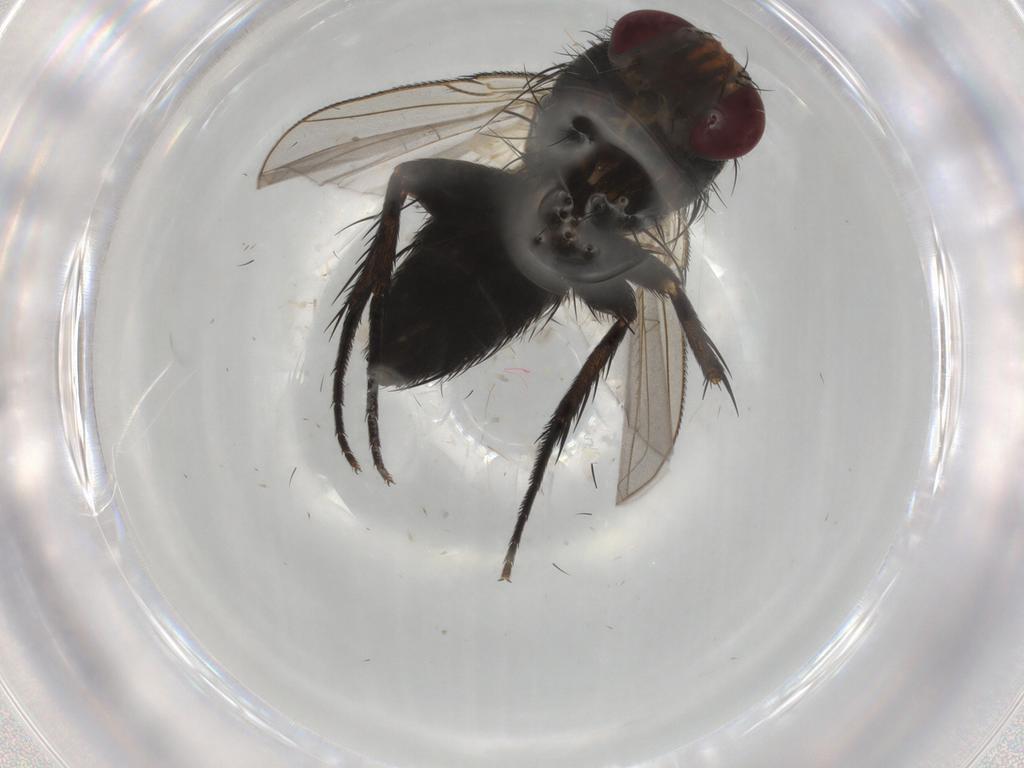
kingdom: Animalia
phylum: Arthropoda
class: Insecta
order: Diptera
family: Tachinidae
